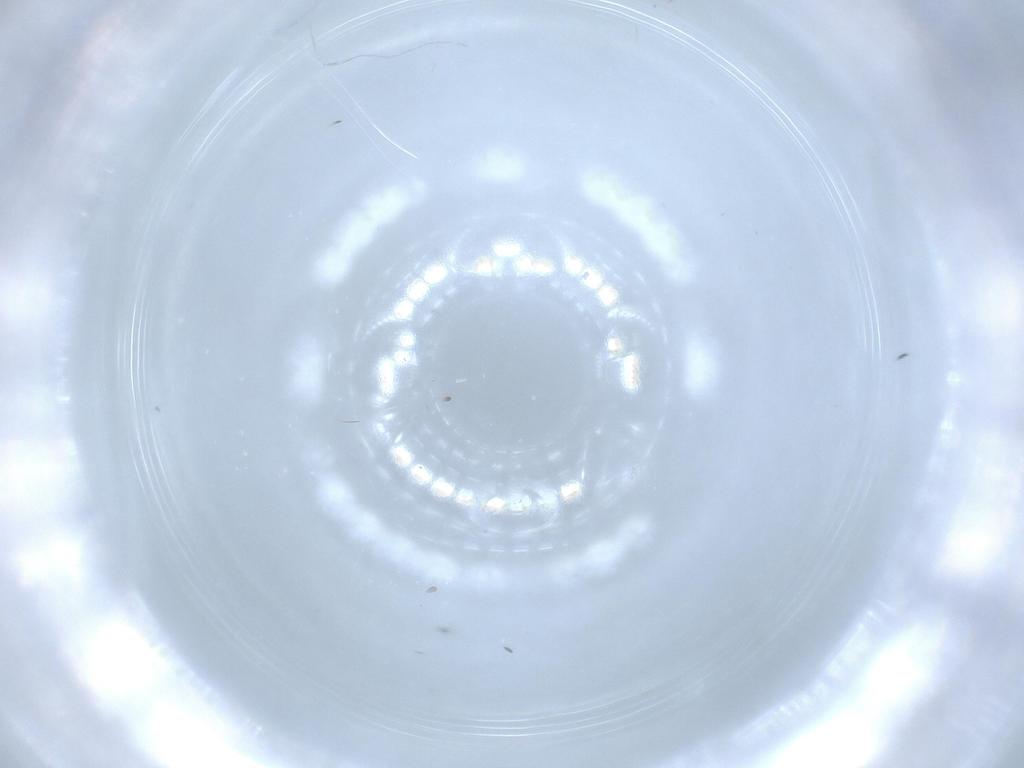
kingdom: Animalia
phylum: Arthropoda
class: Insecta
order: Hymenoptera
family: Scelionidae
